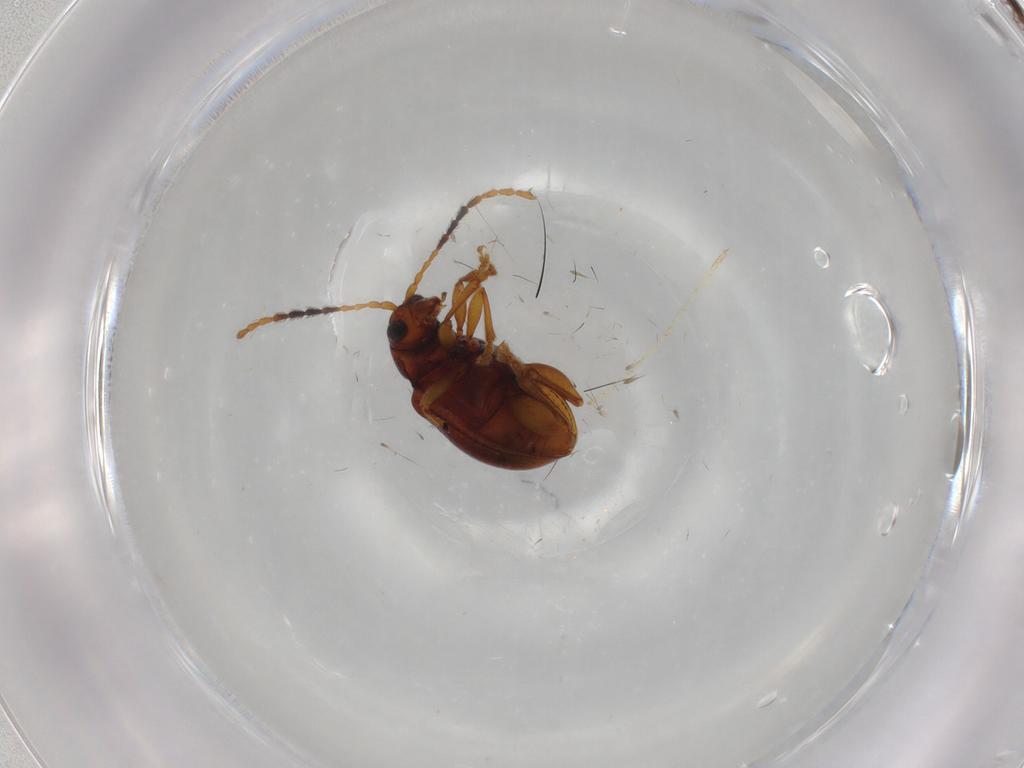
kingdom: Animalia
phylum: Arthropoda
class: Insecta
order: Coleoptera
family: Chrysomelidae
